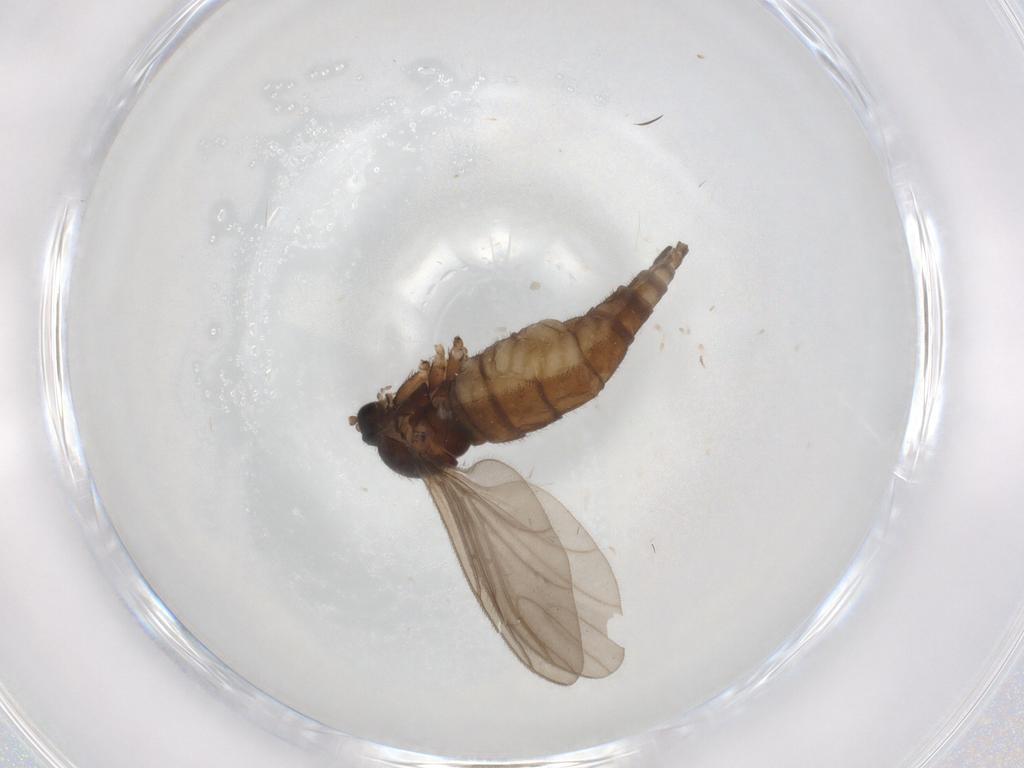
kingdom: Animalia
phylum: Arthropoda
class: Insecta
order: Diptera
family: Sciaridae
